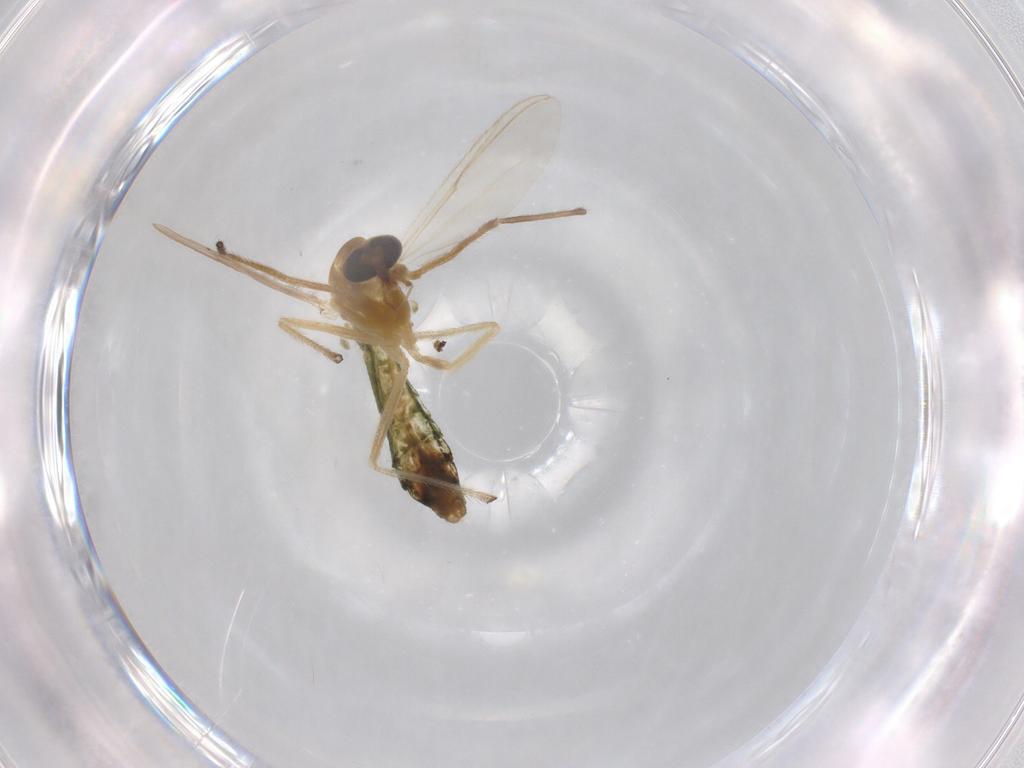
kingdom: Animalia
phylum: Arthropoda
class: Insecta
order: Diptera
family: Chironomidae
